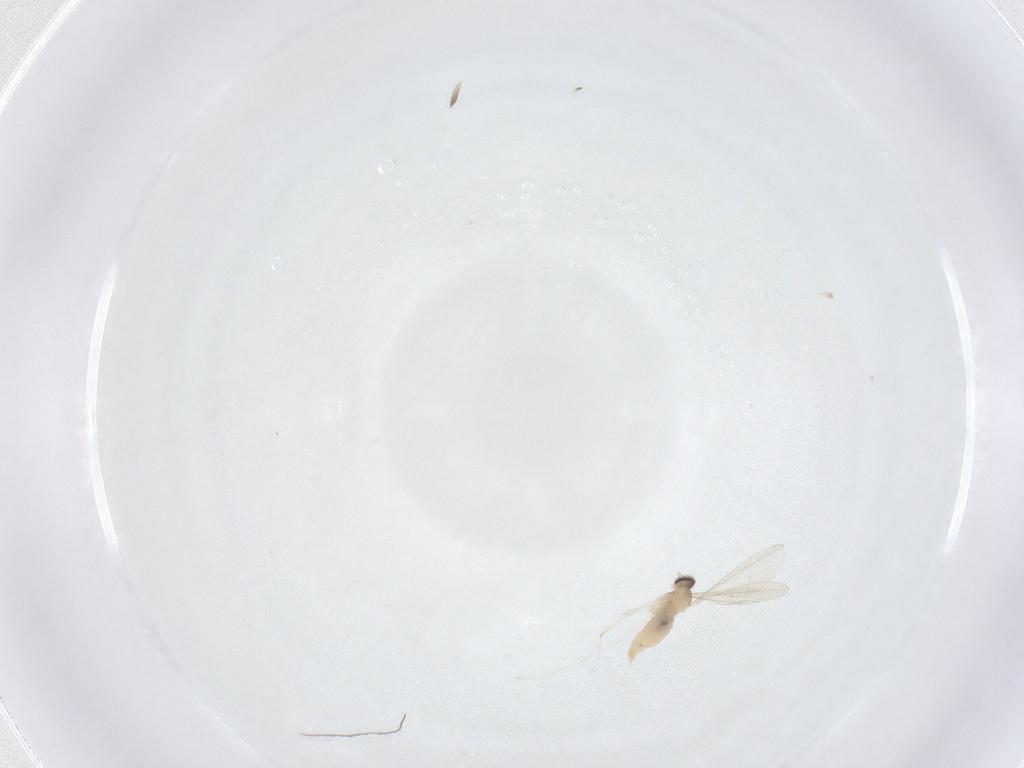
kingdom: Animalia
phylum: Arthropoda
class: Insecta
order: Diptera
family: Cecidomyiidae
